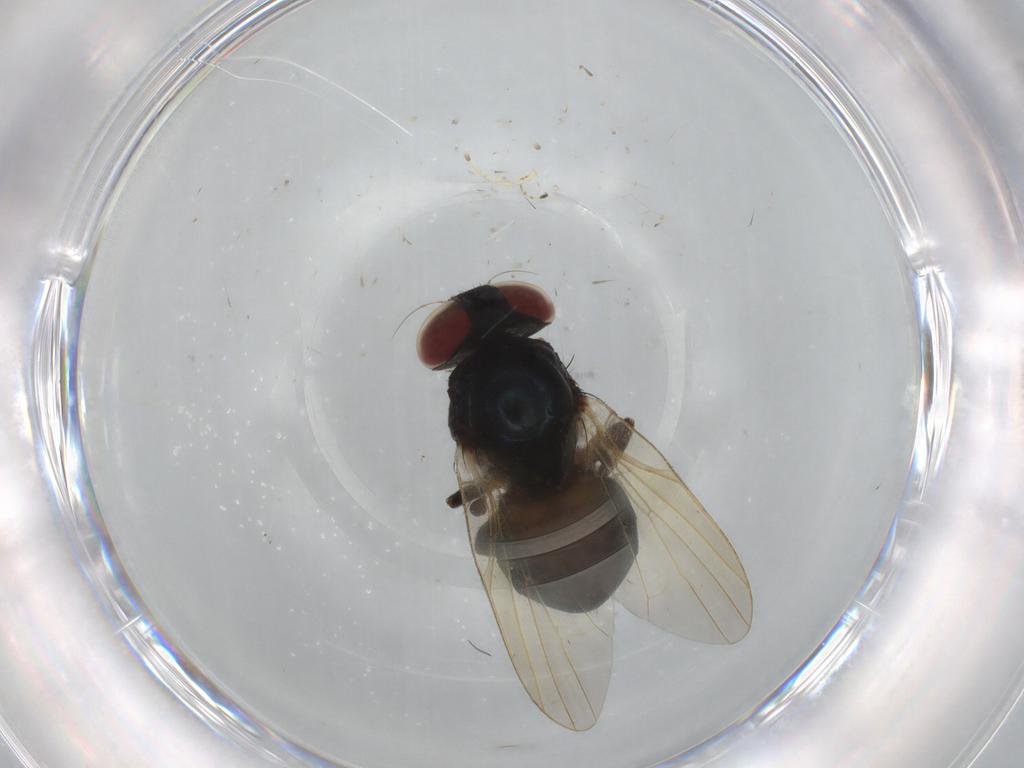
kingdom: Animalia
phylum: Arthropoda
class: Insecta
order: Diptera
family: Lonchaeidae
